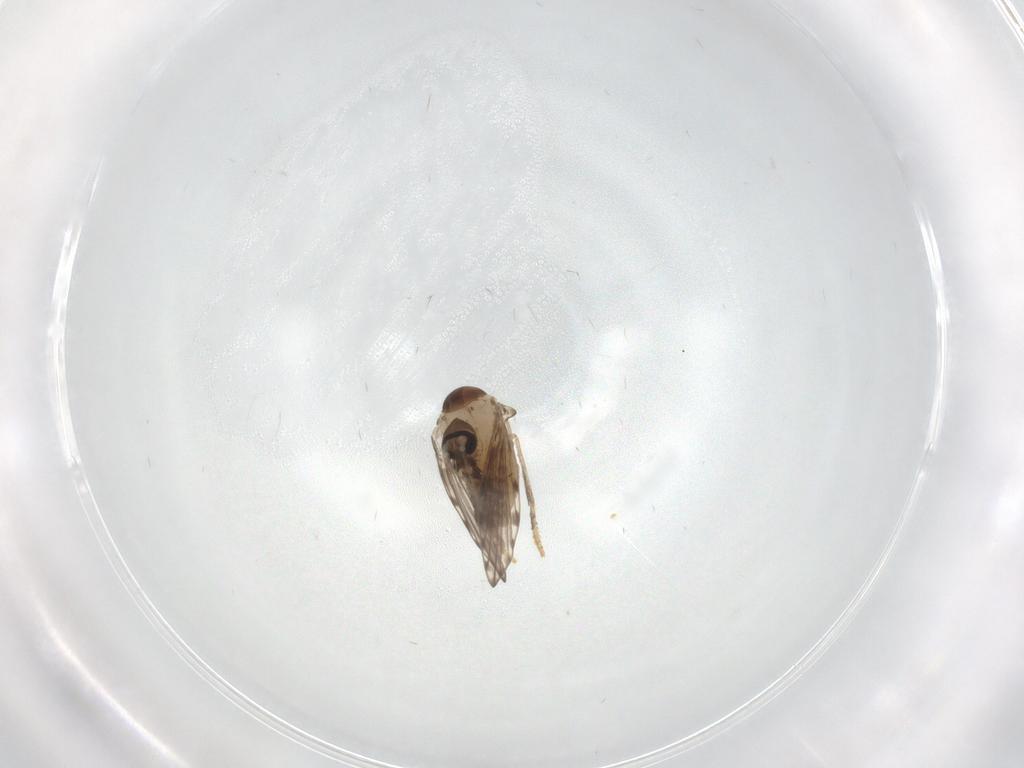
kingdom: Animalia
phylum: Arthropoda
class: Insecta
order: Diptera
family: Psychodidae
